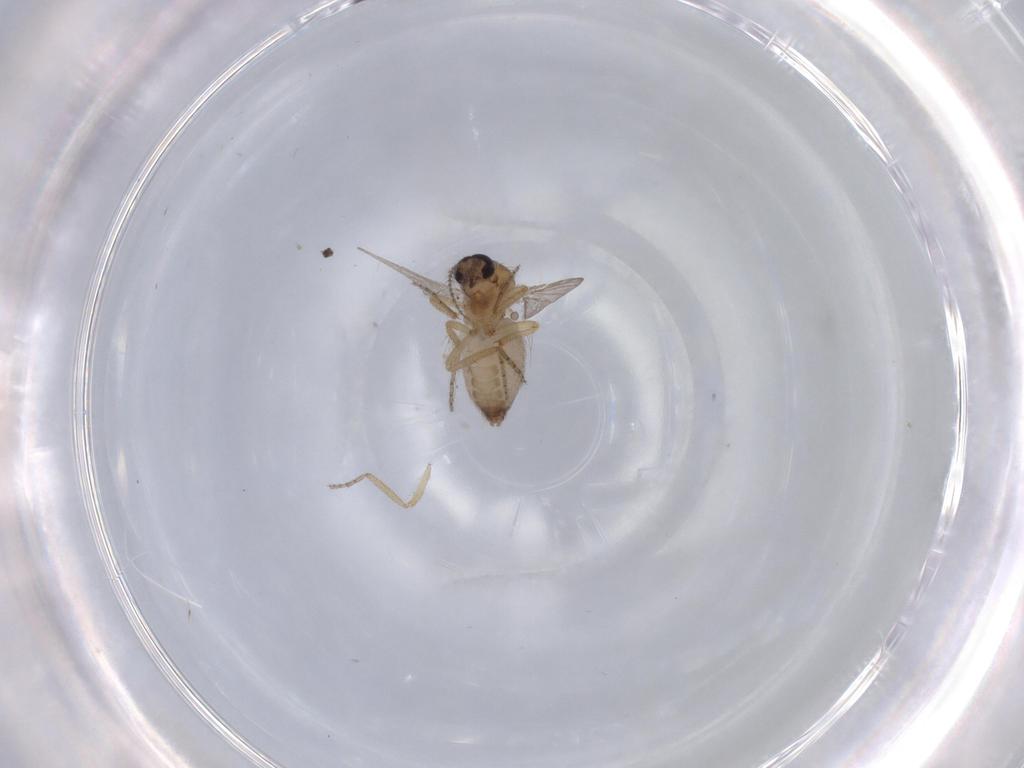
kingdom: Animalia
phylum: Arthropoda
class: Insecta
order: Diptera
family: Ceratopogonidae
